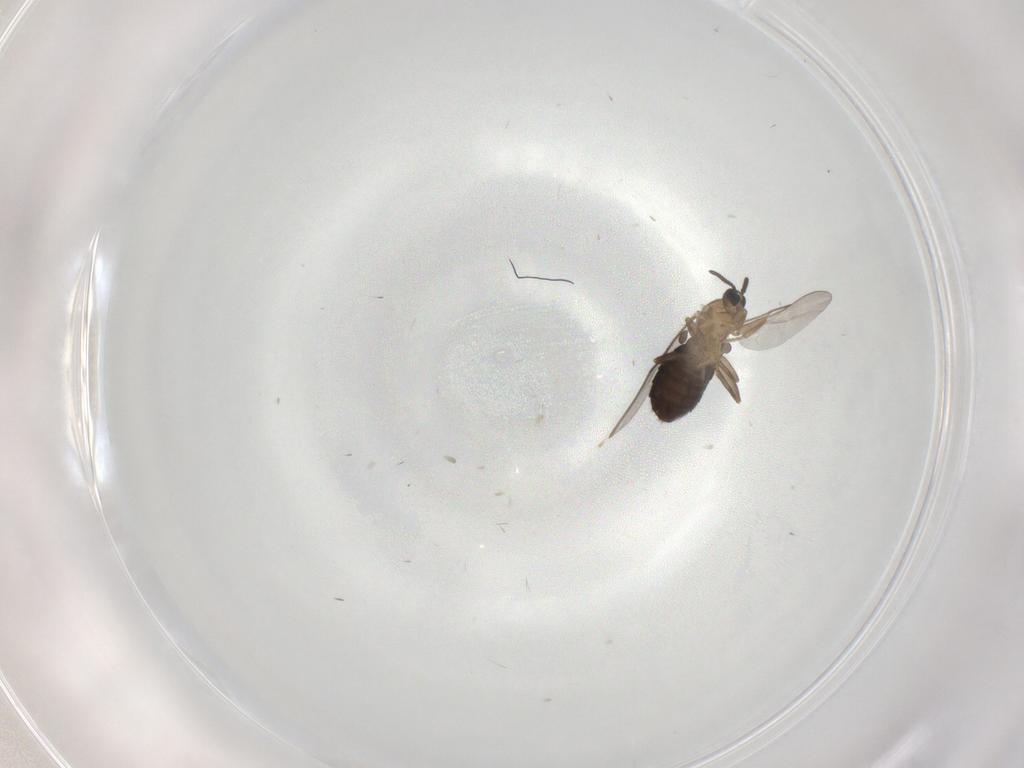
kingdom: Animalia
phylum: Arthropoda
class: Insecta
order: Diptera
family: Scatopsidae
